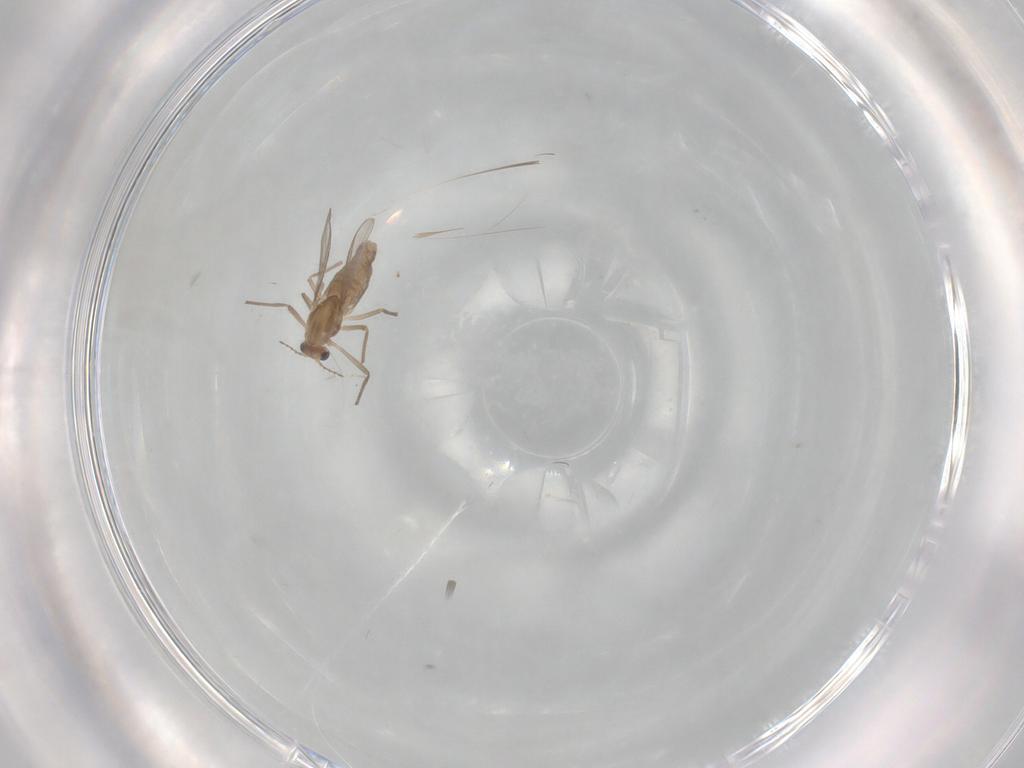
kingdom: Animalia
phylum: Arthropoda
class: Insecta
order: Diptera
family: Chironomidae
